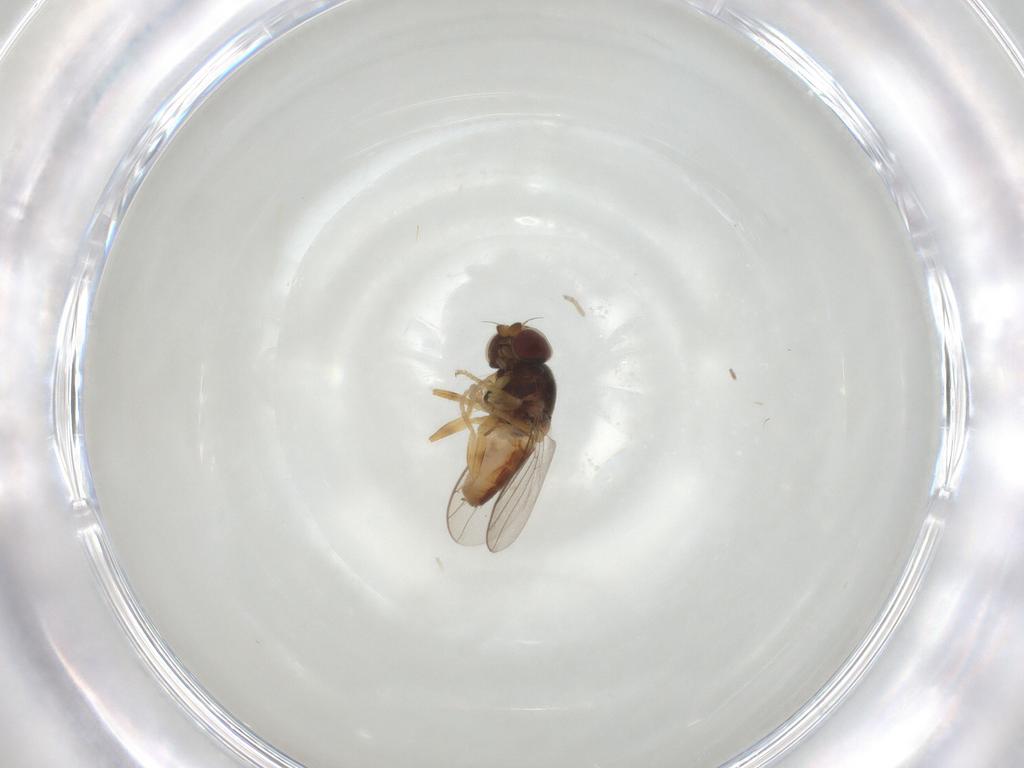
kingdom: Animalia
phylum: Arthropoda
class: Insecta
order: Diptera
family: Chloropidae
